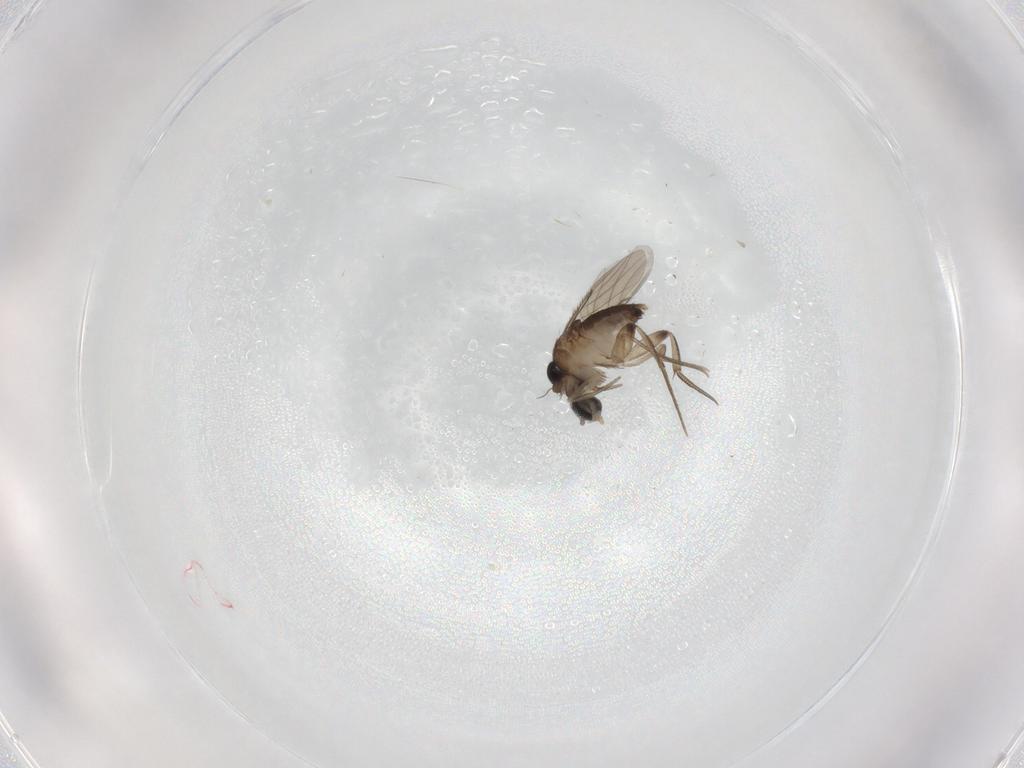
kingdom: Animalia
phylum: Arthropoda
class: Insecta
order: Diptera
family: Phoridae
